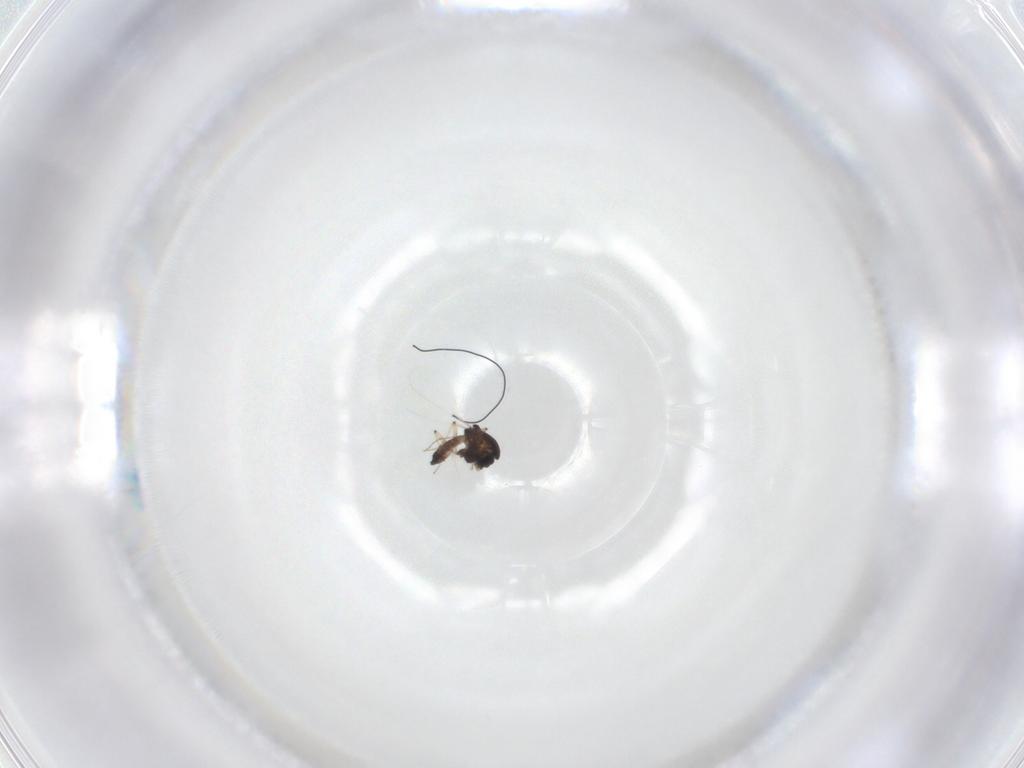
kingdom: Animalia
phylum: Arthropoda
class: Insecta
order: Diptera
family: Chironomidae
